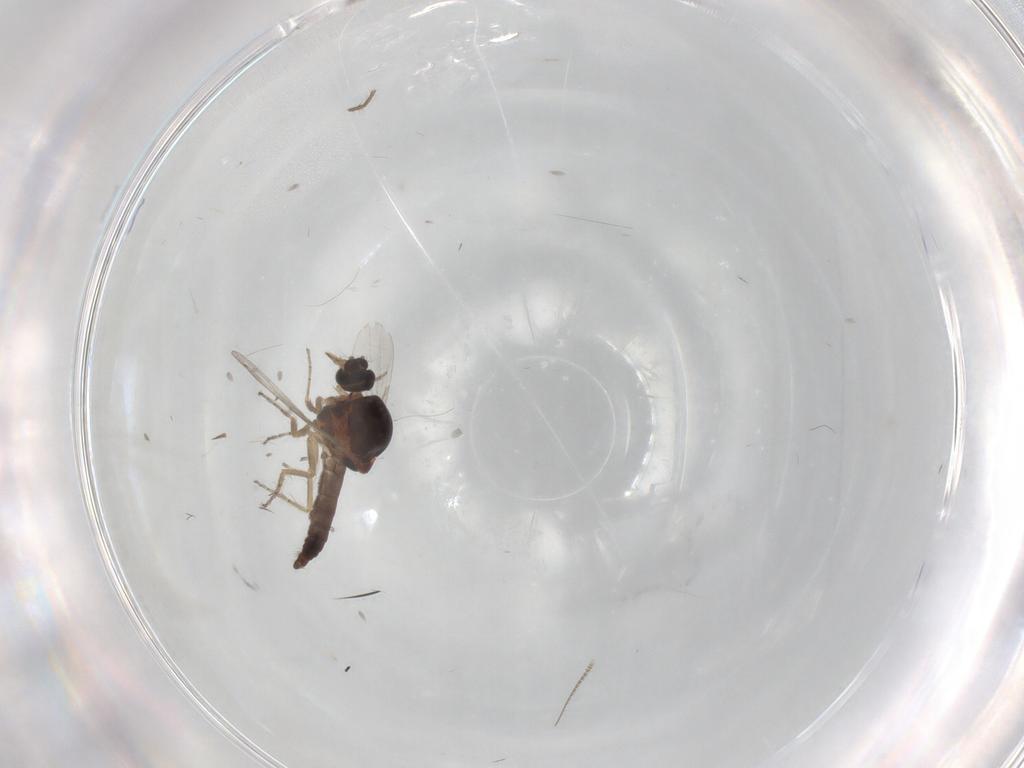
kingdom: Animalia
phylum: Arthropoda
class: Insecta
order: Diptera
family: Chironomidae
